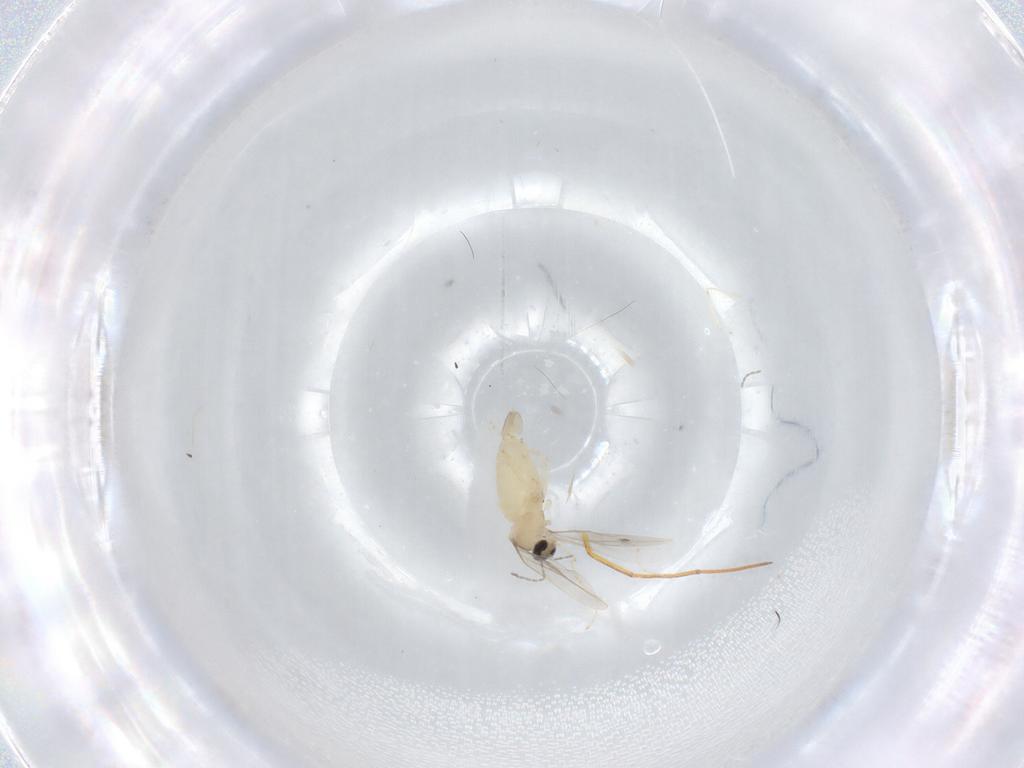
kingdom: Animalia
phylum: Arthropoda
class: Insecta
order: Diptera
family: Cecidomyiidae
